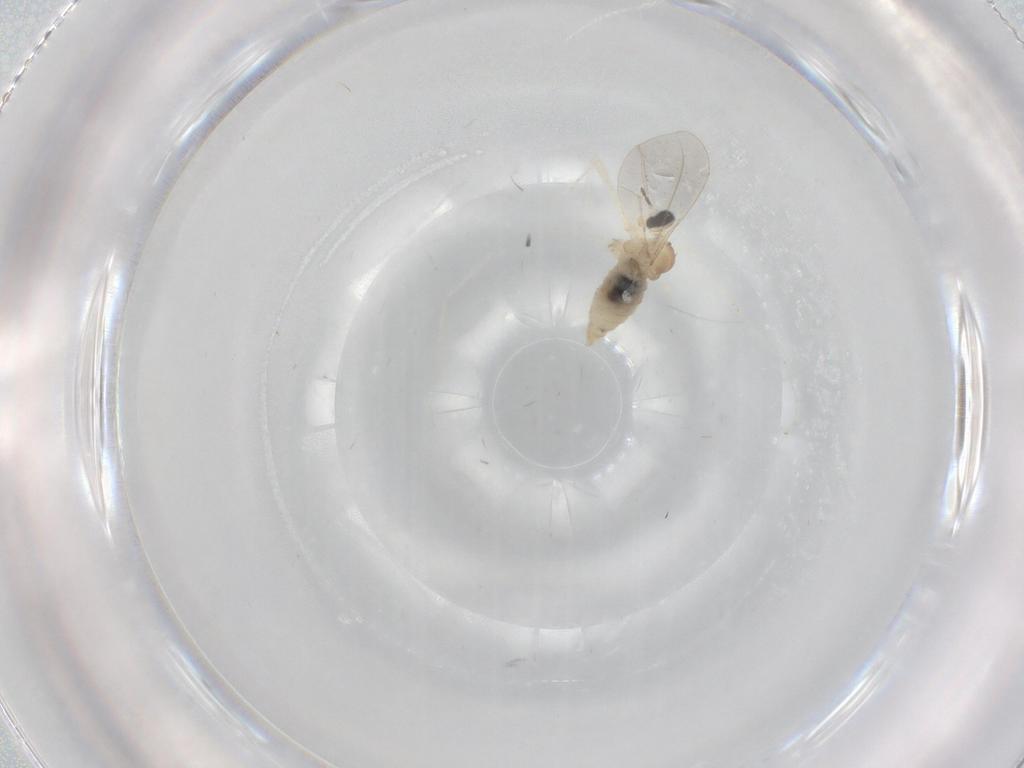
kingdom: Animalia
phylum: Arthropoda
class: Insecta
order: Diptera
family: Cecidomyiidae
